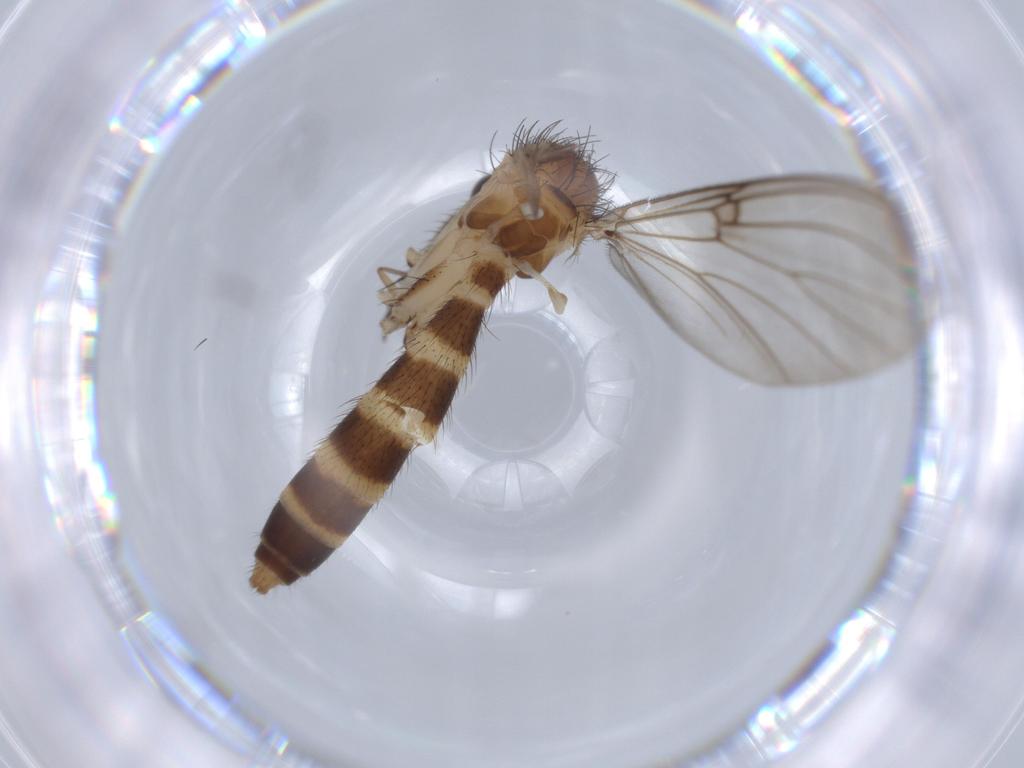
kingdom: Animalia
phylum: Arthropoda
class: Insecta
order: Diptera
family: Mycetophilidae
